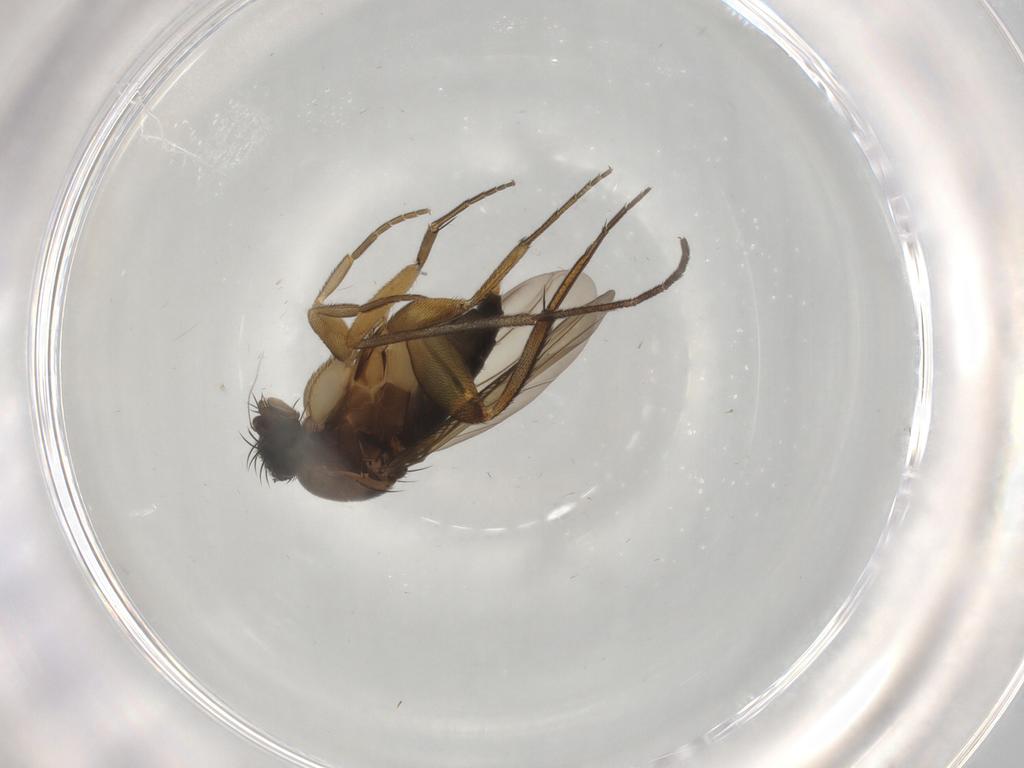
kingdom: Animalia
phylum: Arthropoda
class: Insecta
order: Diptera
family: Phoridae
